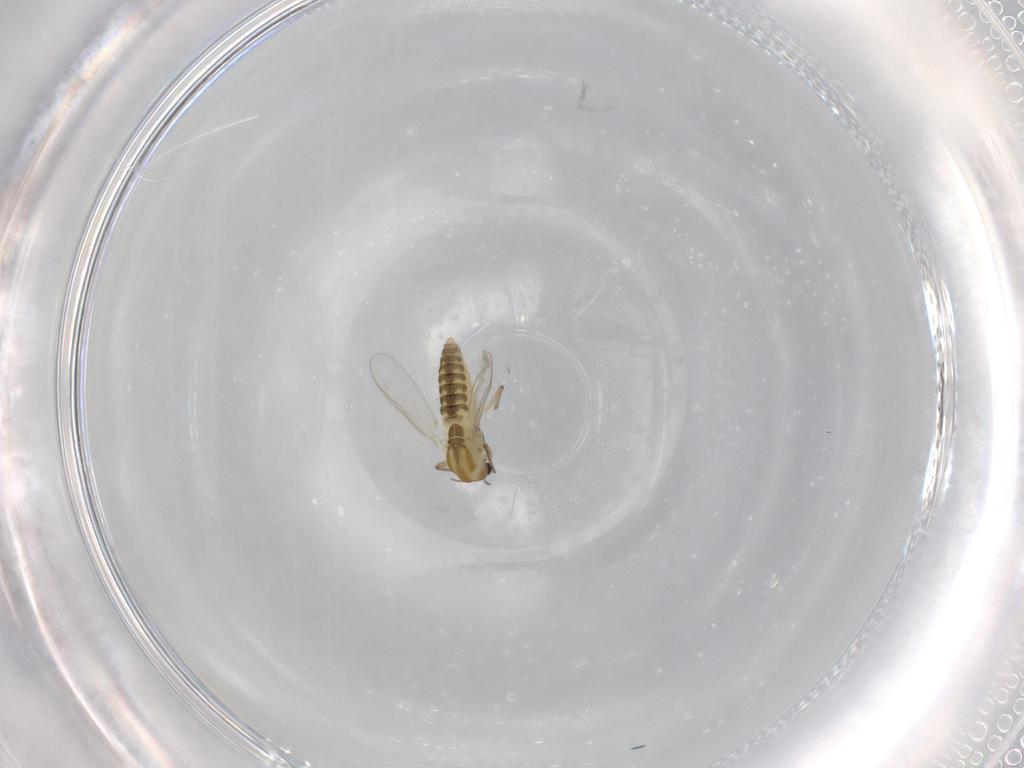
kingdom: Animalia
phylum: Arthropoda
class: Insecta
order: Diptera
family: Chironomidae
